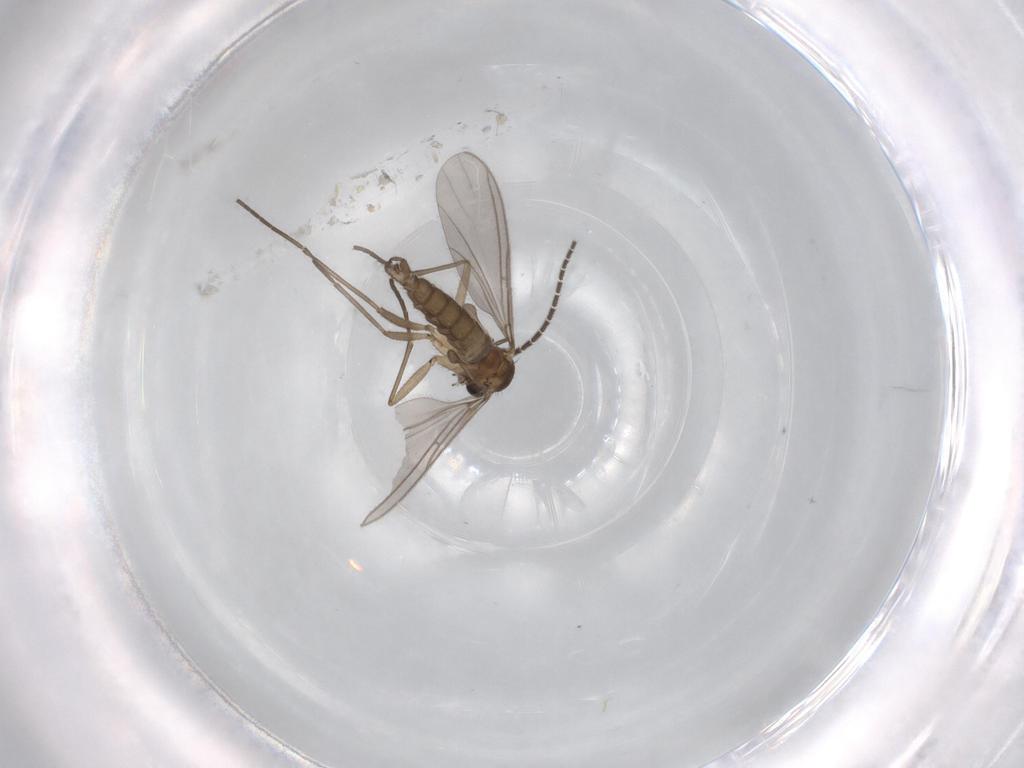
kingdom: Animalia
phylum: Arthropoda
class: Insecta
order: Diptera
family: Sciaridae
